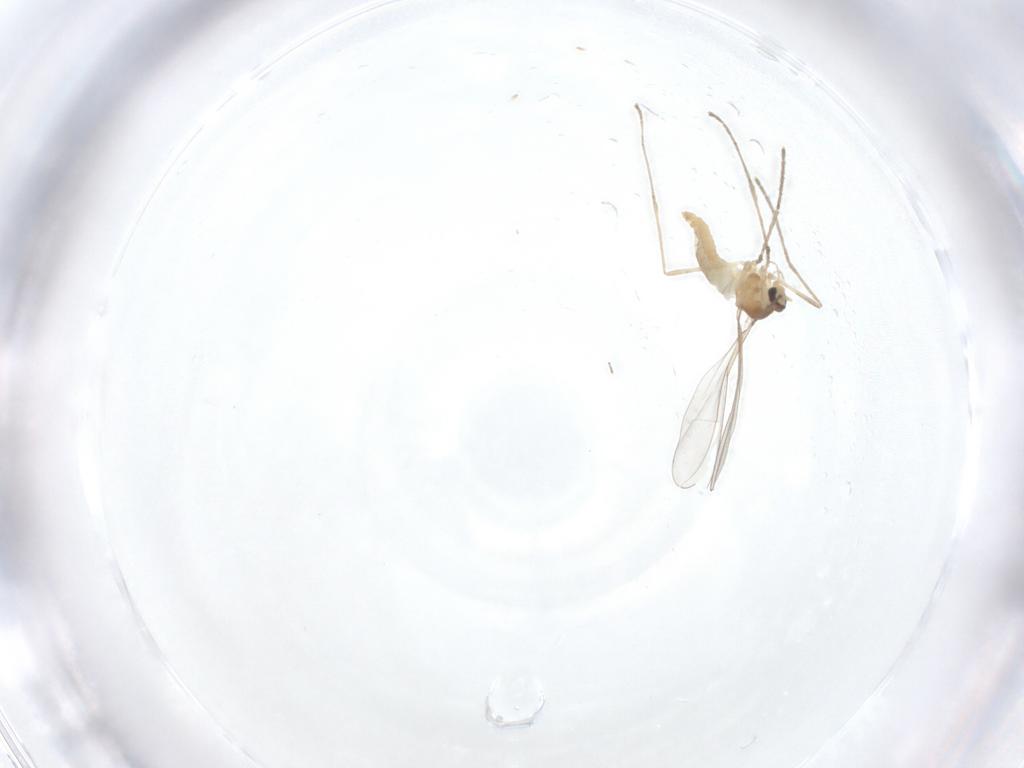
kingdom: Animalia
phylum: Arthropoda
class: Insecta
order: Diptera
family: Cecidomyiidae
